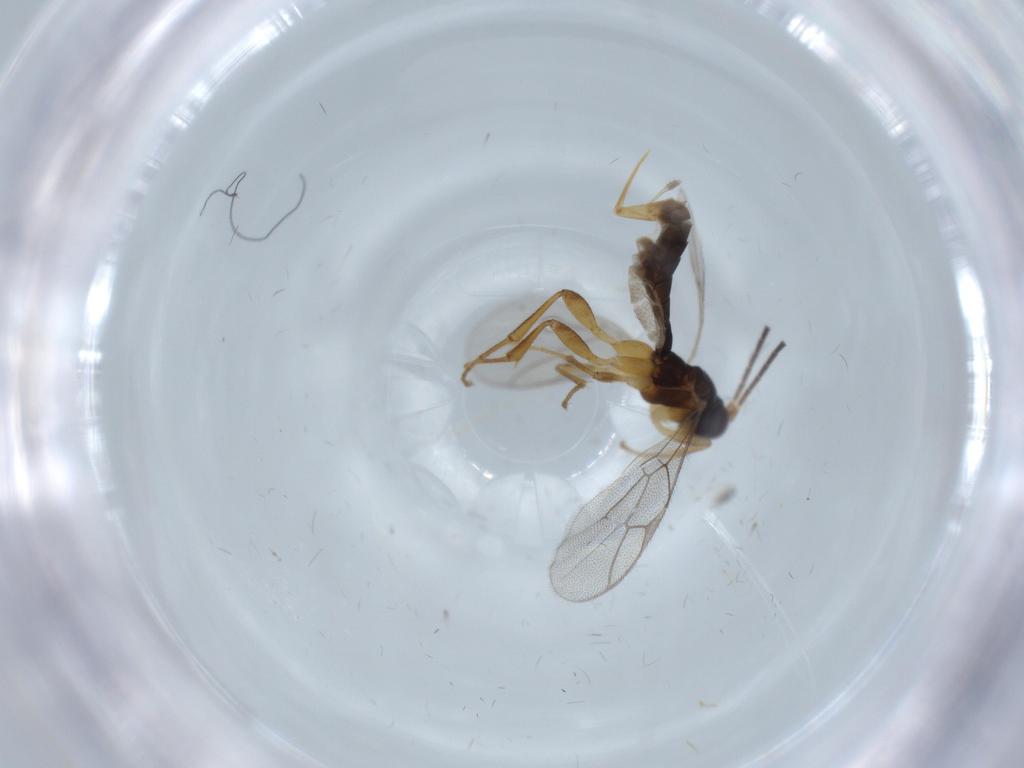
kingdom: Animalia
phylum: Arthropoda
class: Insecta
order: Hymenoptera
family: Ichneumonidae
